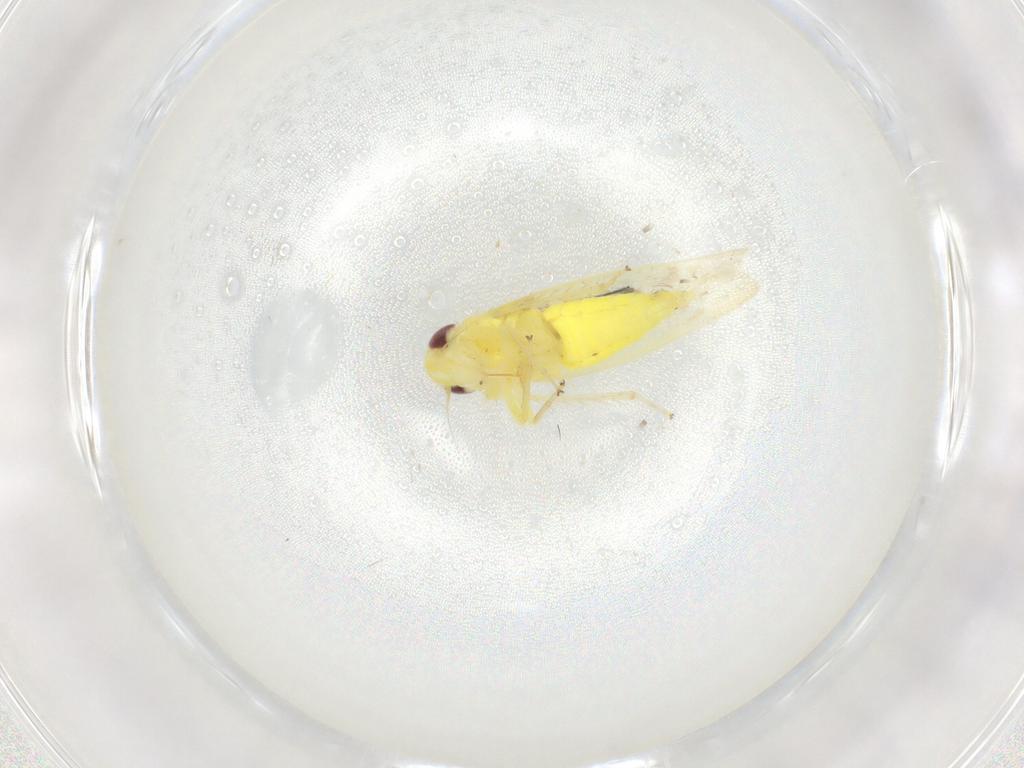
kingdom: Animalia
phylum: Arthropoda
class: Insecta
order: Hemiptera
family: Cicadellidae
